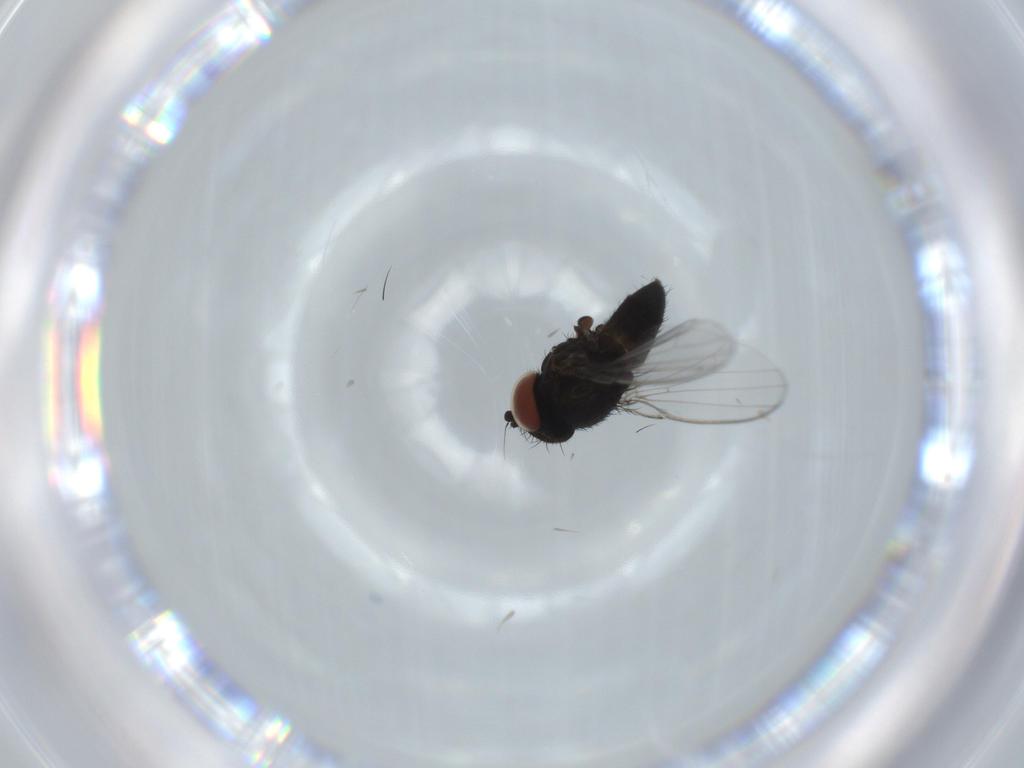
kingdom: Animalia
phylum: Arthropoda
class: Insecta
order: Diptera
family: Milichiidae
